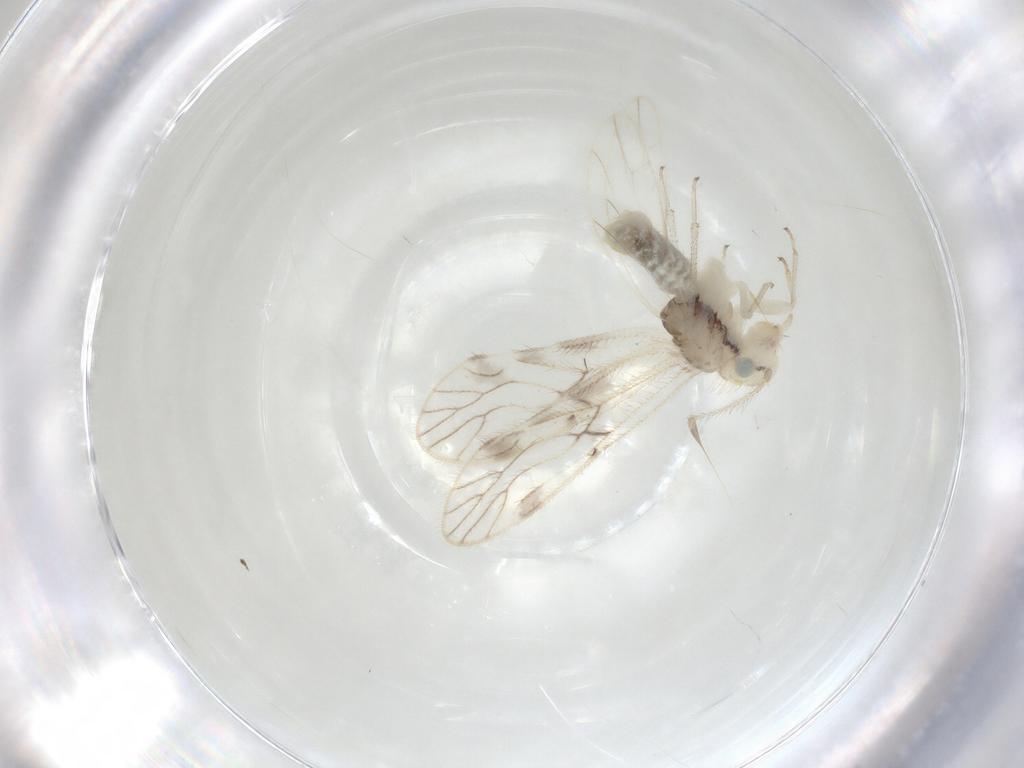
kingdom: Animalia
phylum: Arthropoda
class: Insecta
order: Psocodea
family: Caeciliusidae
